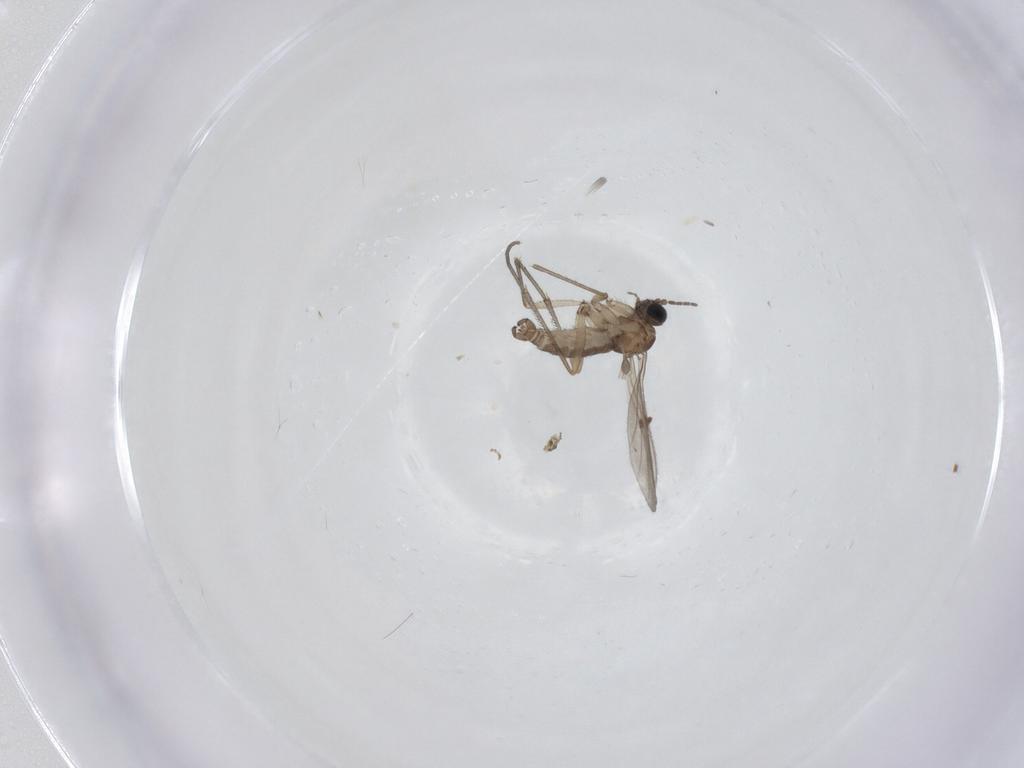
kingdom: Animalia
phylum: Arthropoda
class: Insecta
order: Diptera
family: Sciaridae
